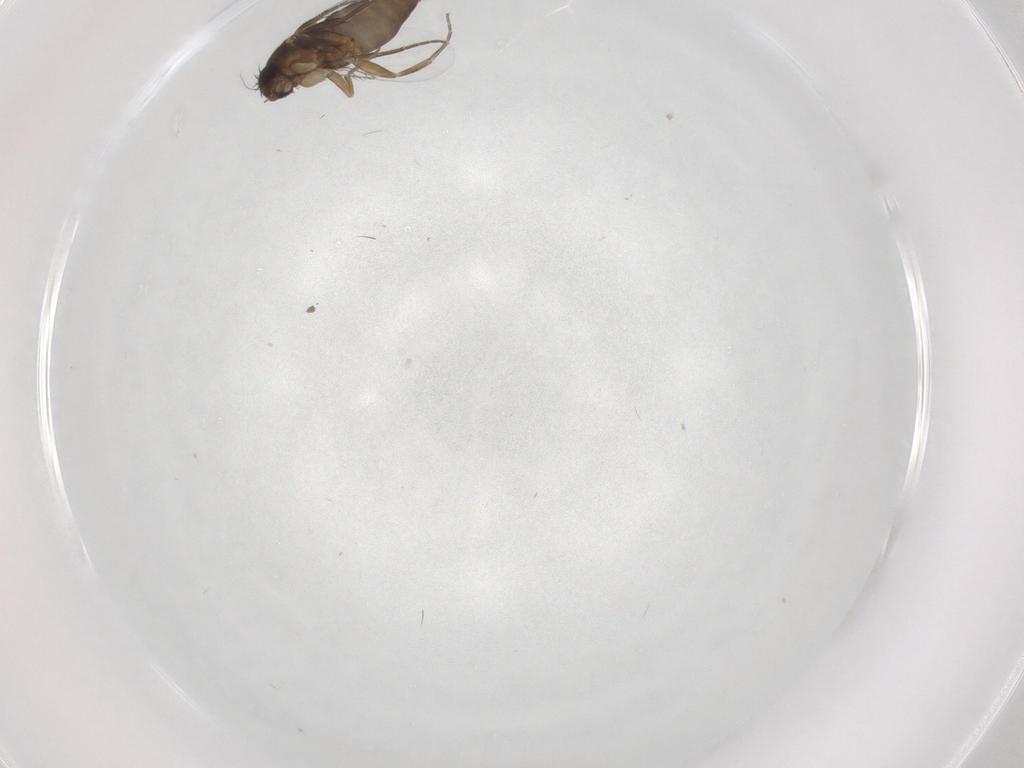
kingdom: Animalia
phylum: Arthropoda
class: Insecta
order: Diptera
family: Phoridae
